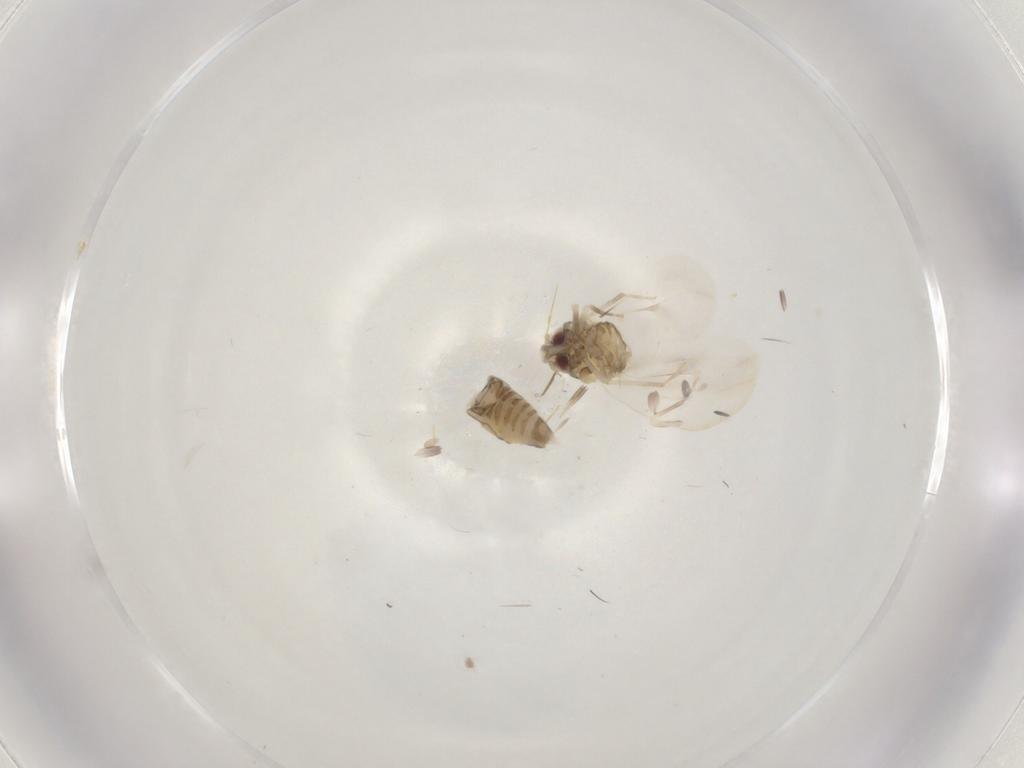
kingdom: Animalia
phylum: Arthropoda
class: Insecta
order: Hemiptera
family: Aleyrodidae
